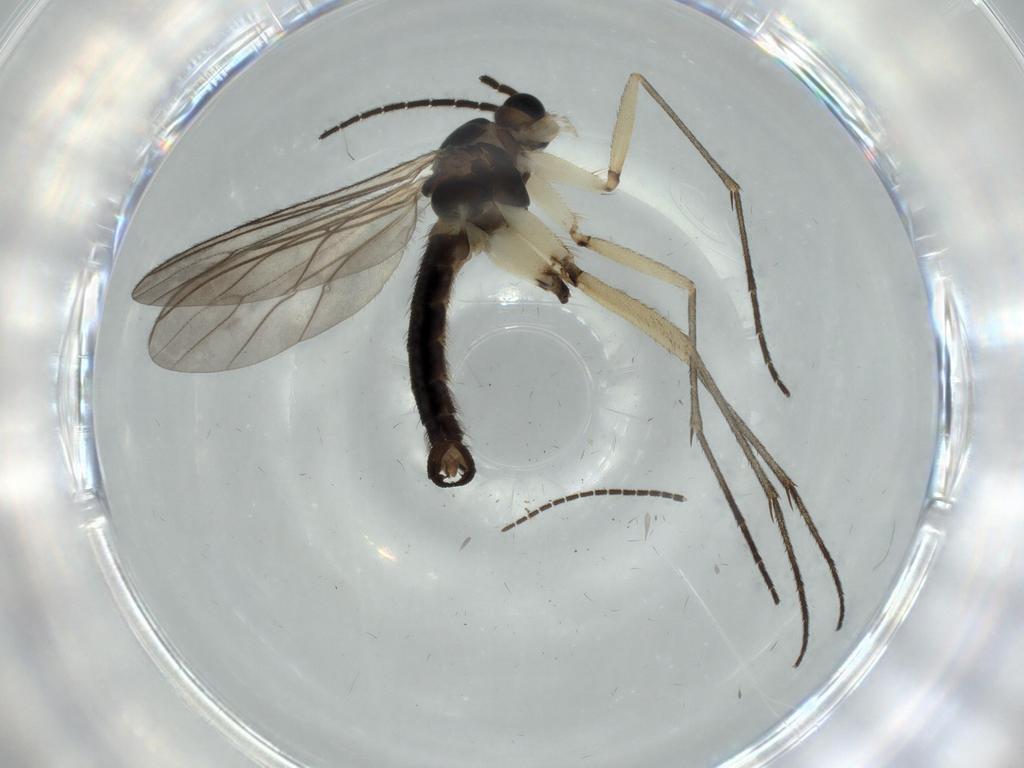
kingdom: Animalia
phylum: Arthropoda
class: Insecta
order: Diptera
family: Sciaridae
